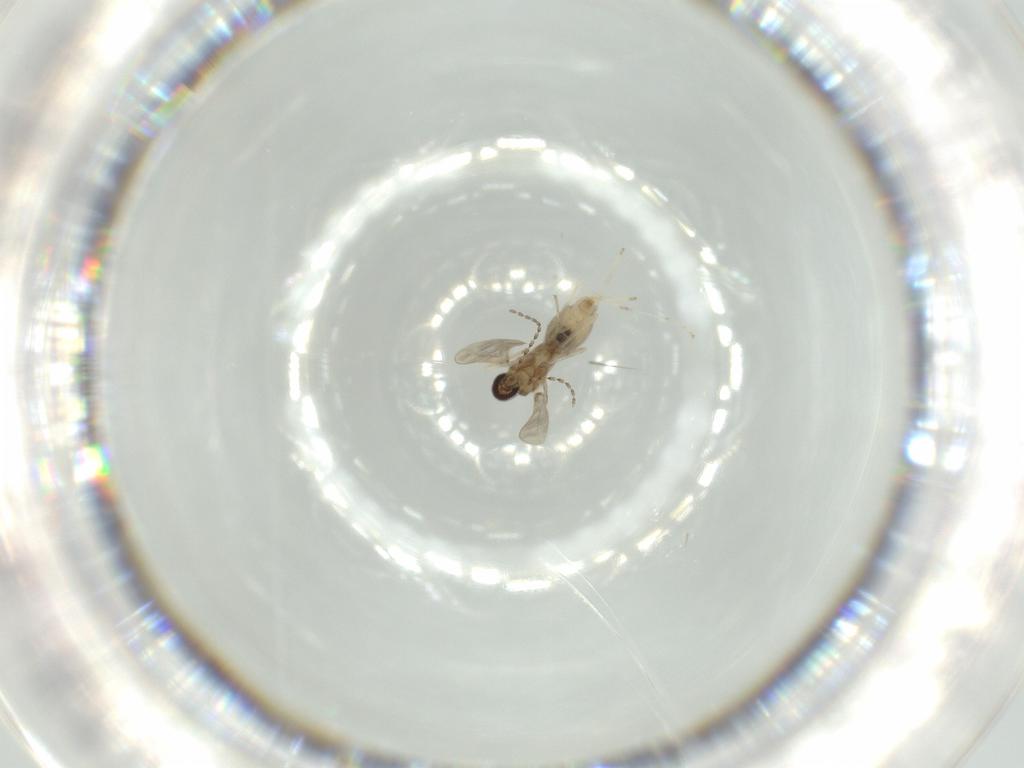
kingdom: Animalia
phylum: Arthropoda
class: Insecta
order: Diptera
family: Cecidomyiidae
